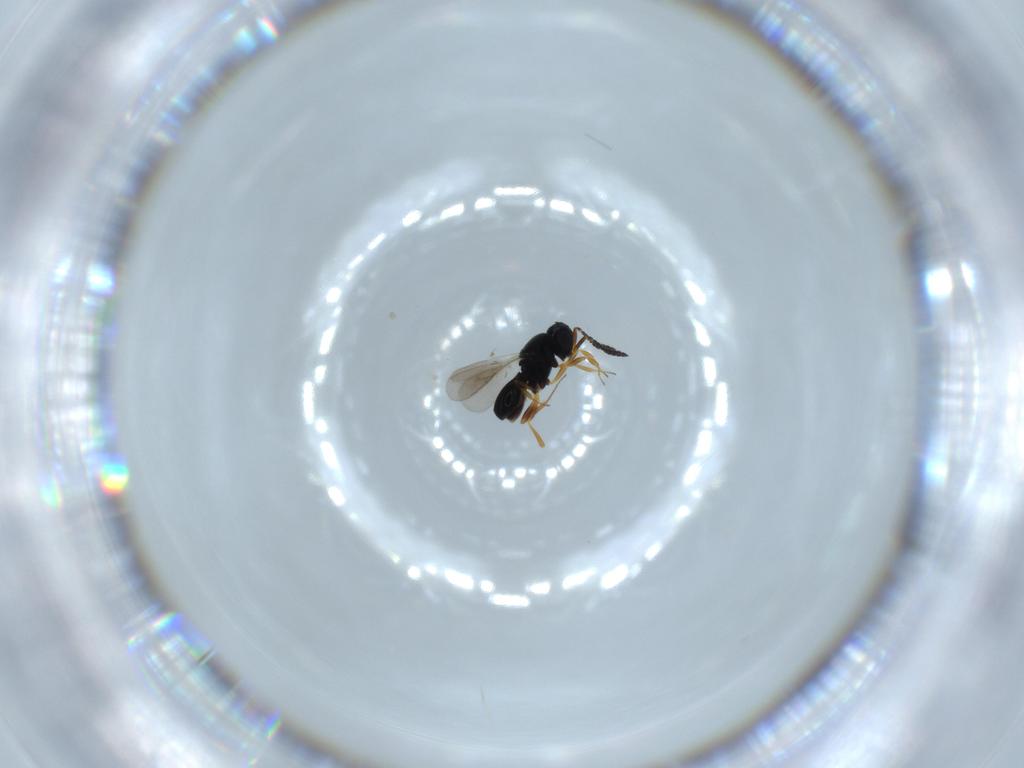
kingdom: Animalia
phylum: Arthropoda
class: Insecta
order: Hymenoptera
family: Scelionidae
